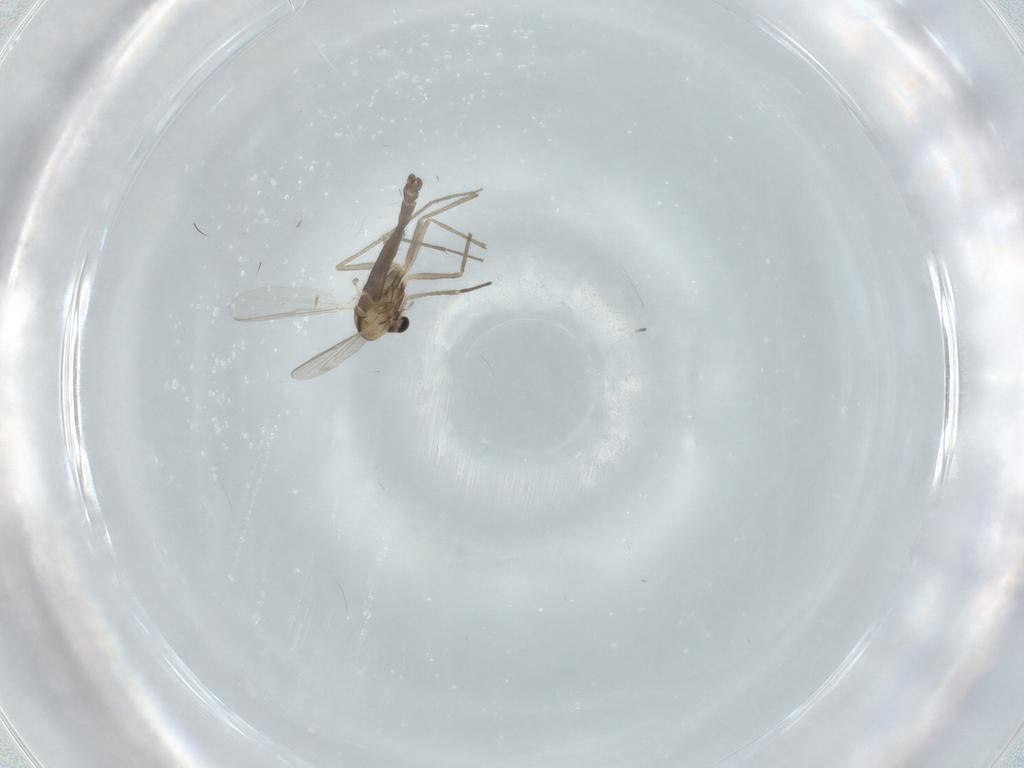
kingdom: Animalia
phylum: Arthropoda
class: Insecta
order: Diptera
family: Chironomidae
